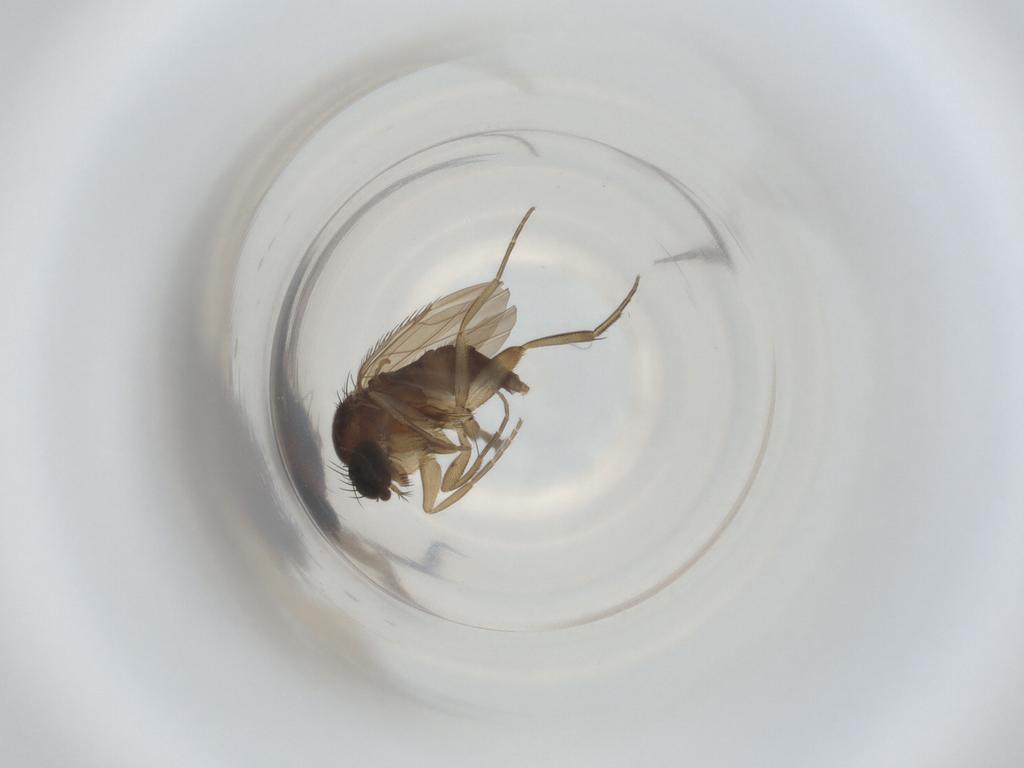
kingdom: Animalia
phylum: Arthropoda
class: Insecta
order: Diptera
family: Phoridae
